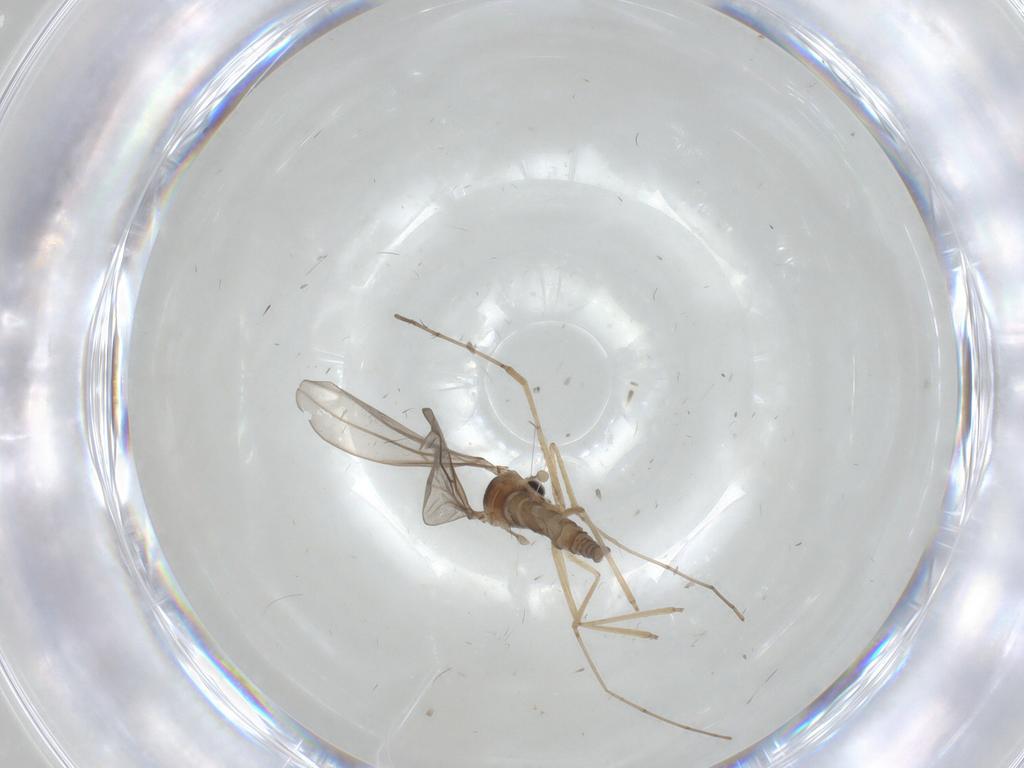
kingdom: Animalia
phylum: Arthropoda
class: Insecta
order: Diptera
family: Cecidomyiidae
